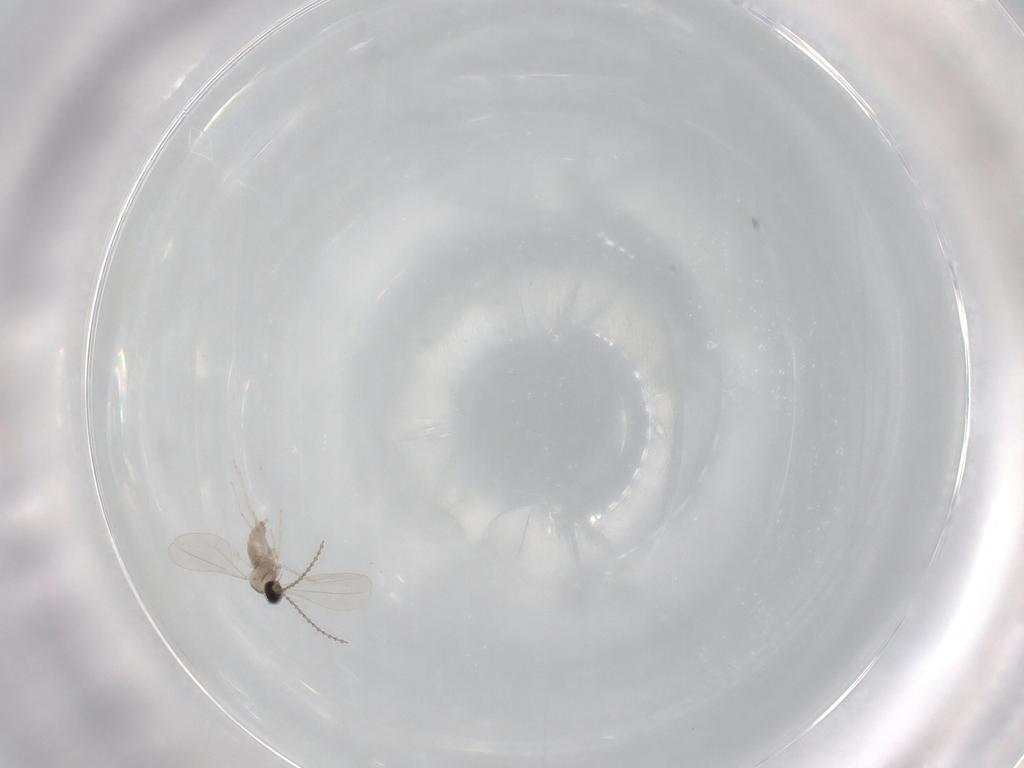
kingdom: Animalia
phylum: Arthropoda
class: Insecta
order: Diptera
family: Cecidomyiidae
